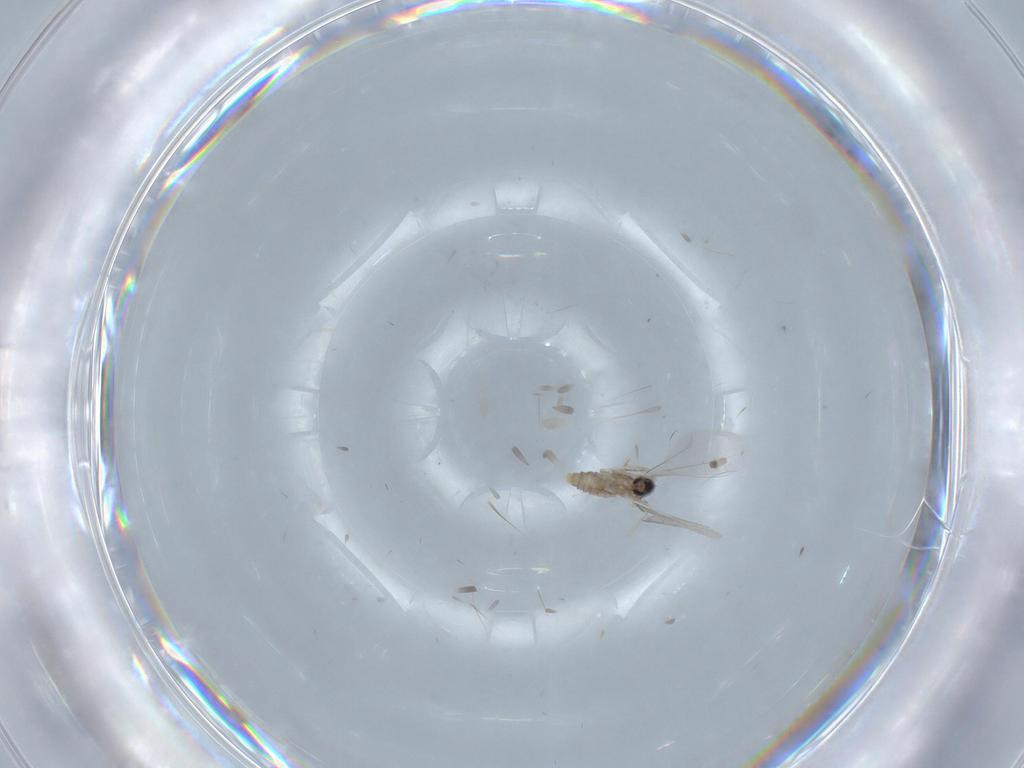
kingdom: Animalia
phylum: Arthropoda
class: Insecta
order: Diptera
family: Cecidomyiidae
